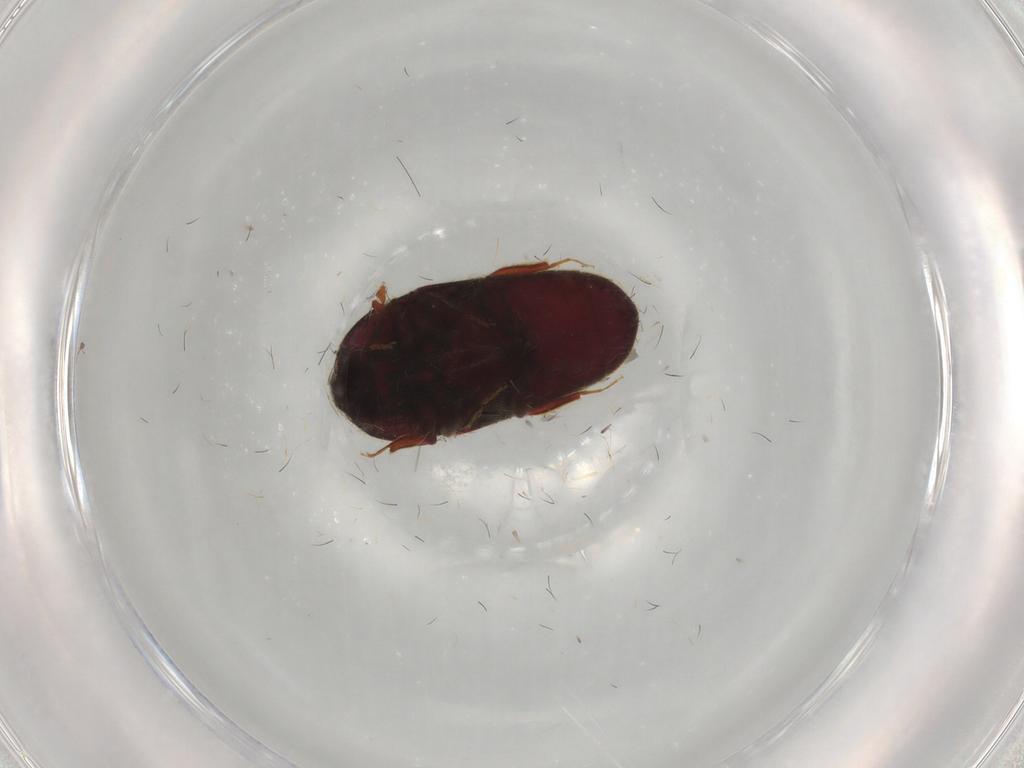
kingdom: Animalia
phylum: Arthropoda
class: Insecta
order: Coleoptera
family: Throscidae
